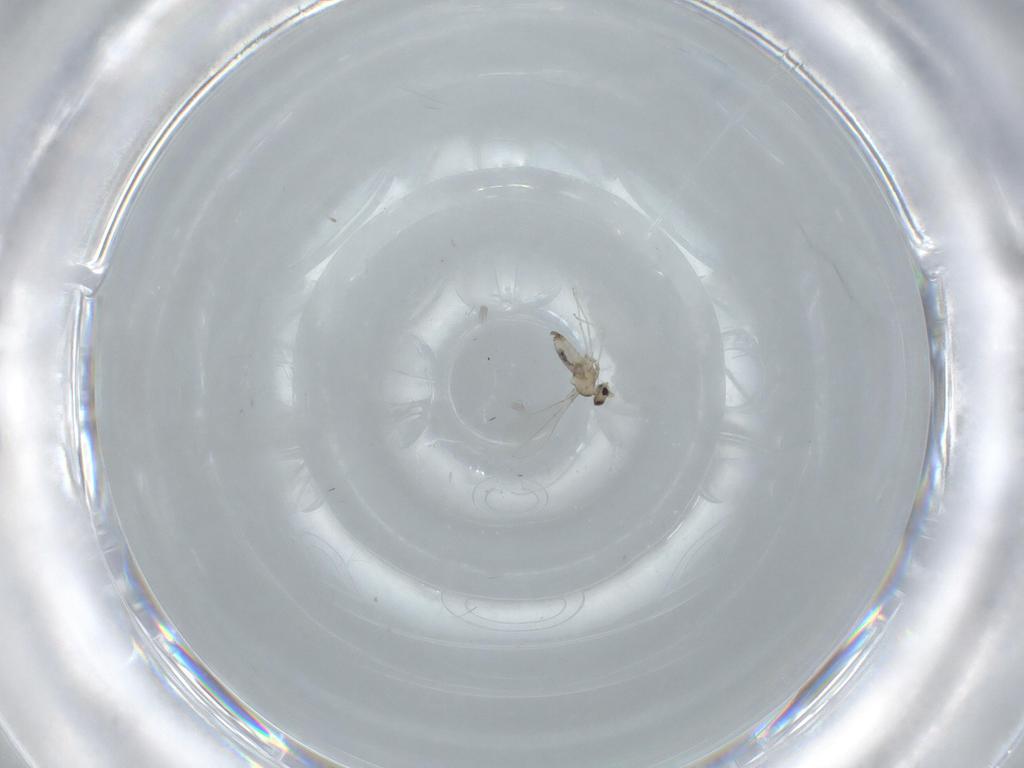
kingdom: Animalia
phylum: Arthropoda
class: Insecta
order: Diptera
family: Cecidomyiidae
